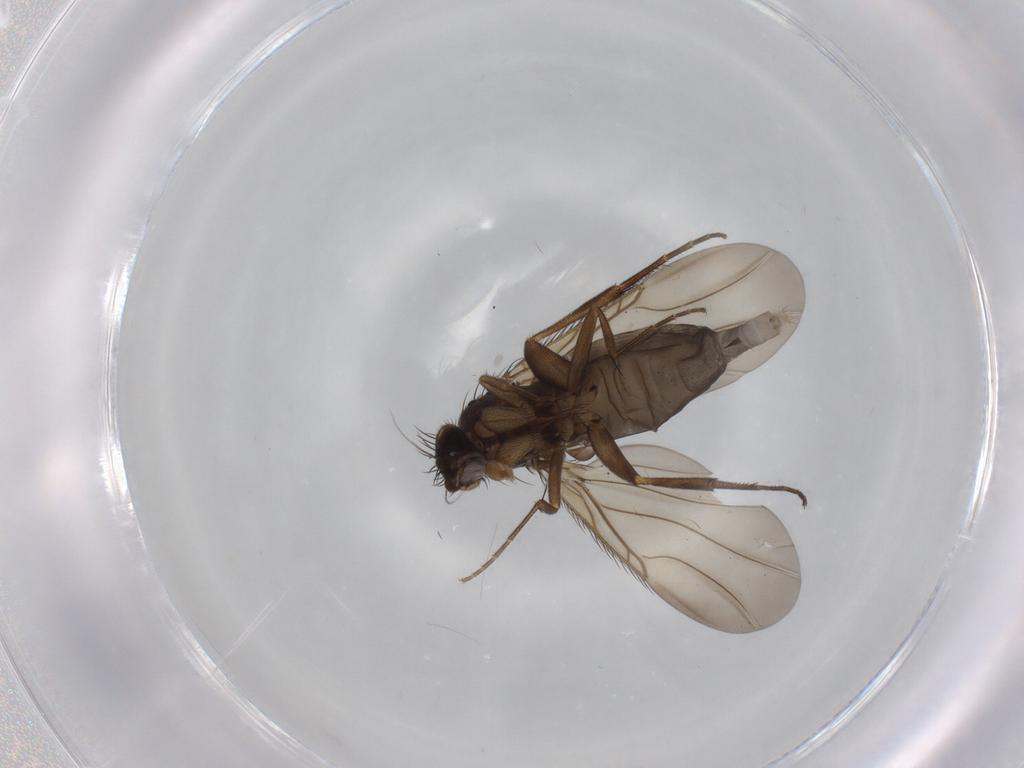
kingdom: Animalia
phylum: Arthropoda
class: Insecta
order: Diptera
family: Phoridae
